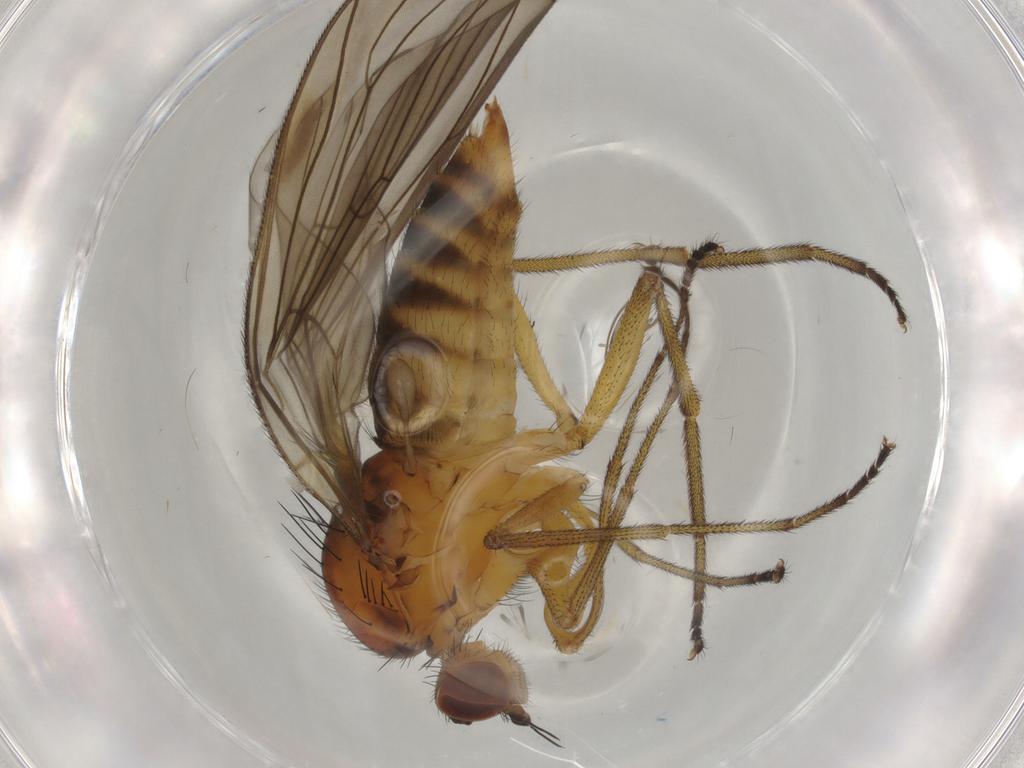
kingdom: Animalia
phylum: Arthropoda
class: Insecta
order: Diptera
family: Brachystomatidae
